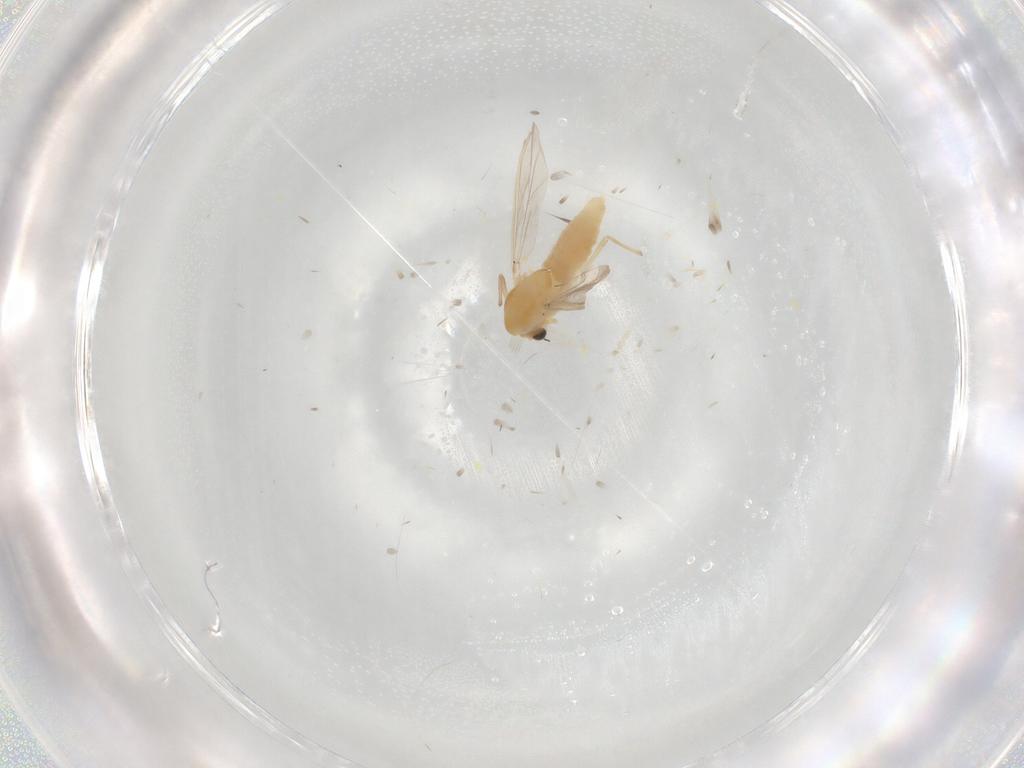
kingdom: Animalia
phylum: Arthropoda
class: Insecta
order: Diptera
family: Chironomidae
